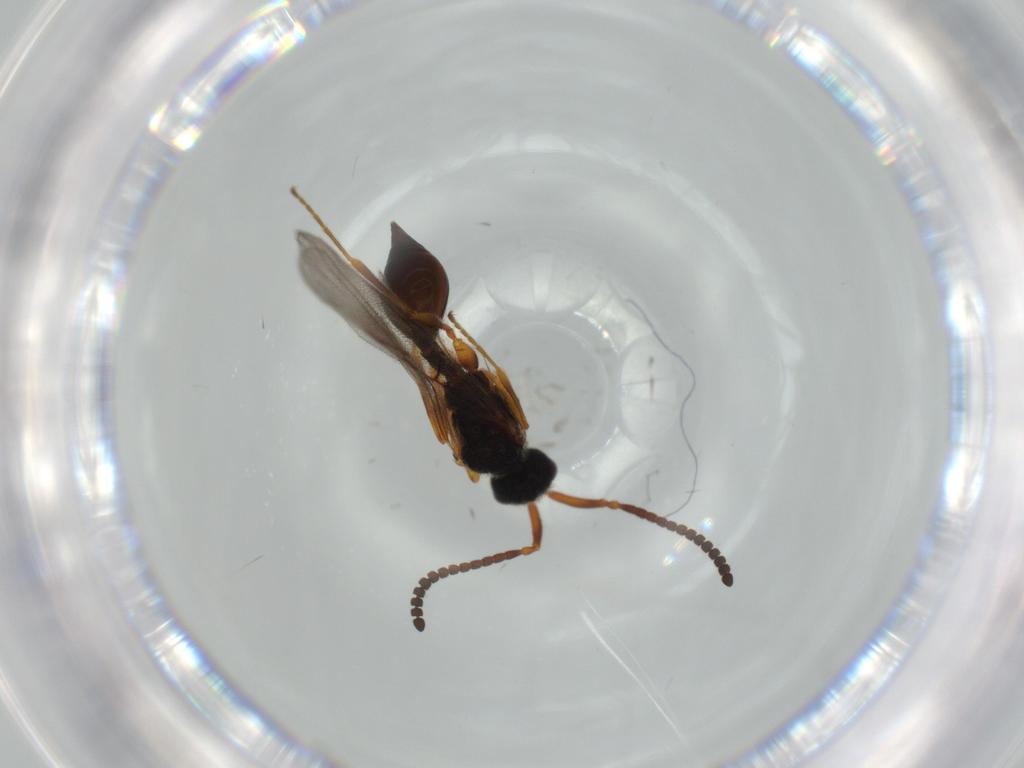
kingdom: Animalia
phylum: Arthropoda
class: Insecta
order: Hymenoptera
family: Diapriidae
